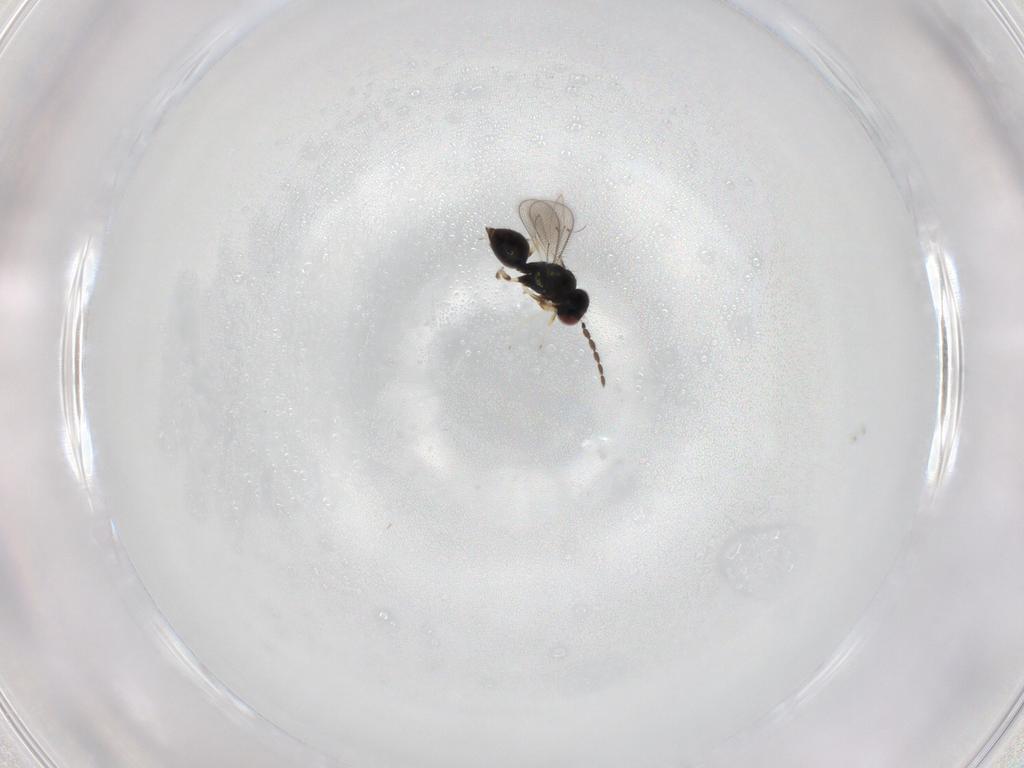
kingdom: Animalia
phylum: Arthropoda
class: Insecta
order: Hymenoptera
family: Eulophidae
